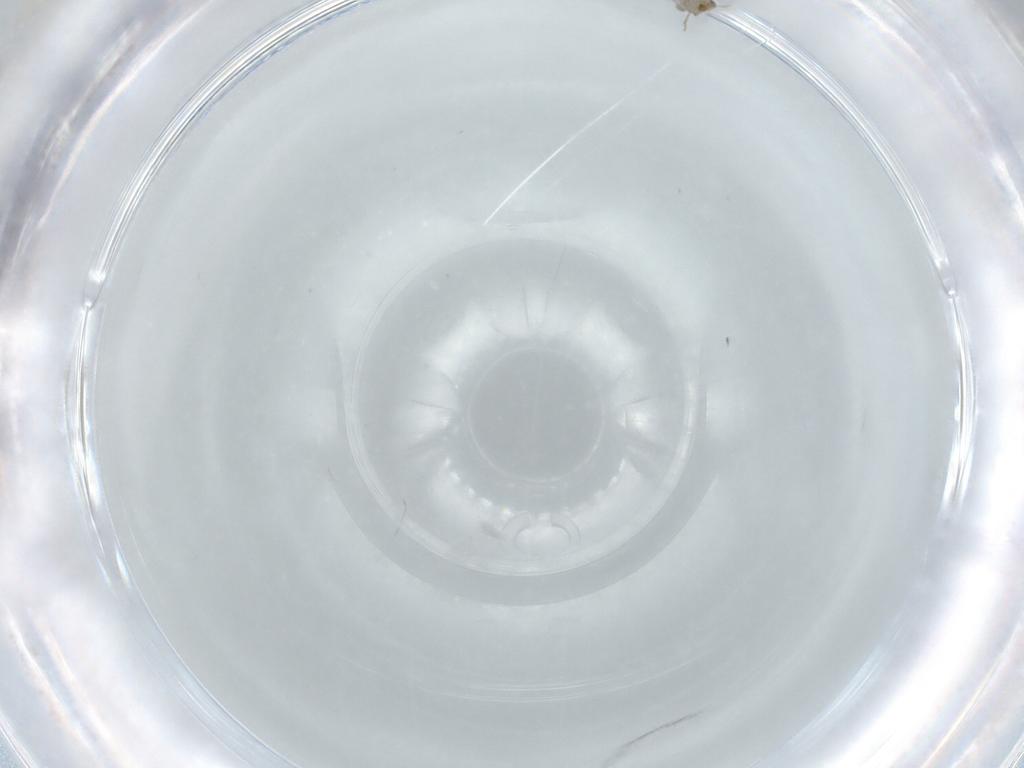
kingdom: Animalia
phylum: Arthropoda
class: Insecta
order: Hymenoptera
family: Aphelinidae
